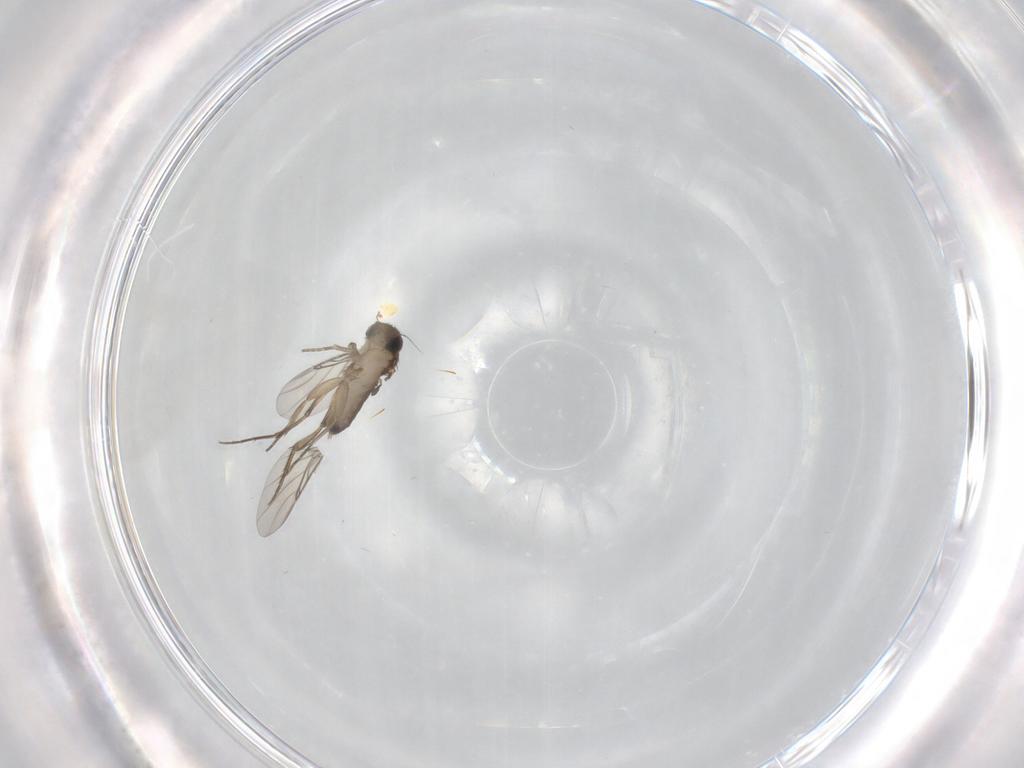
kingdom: Animalia
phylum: Arthropoda
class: Insecta
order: Diptera
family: Phoridae
